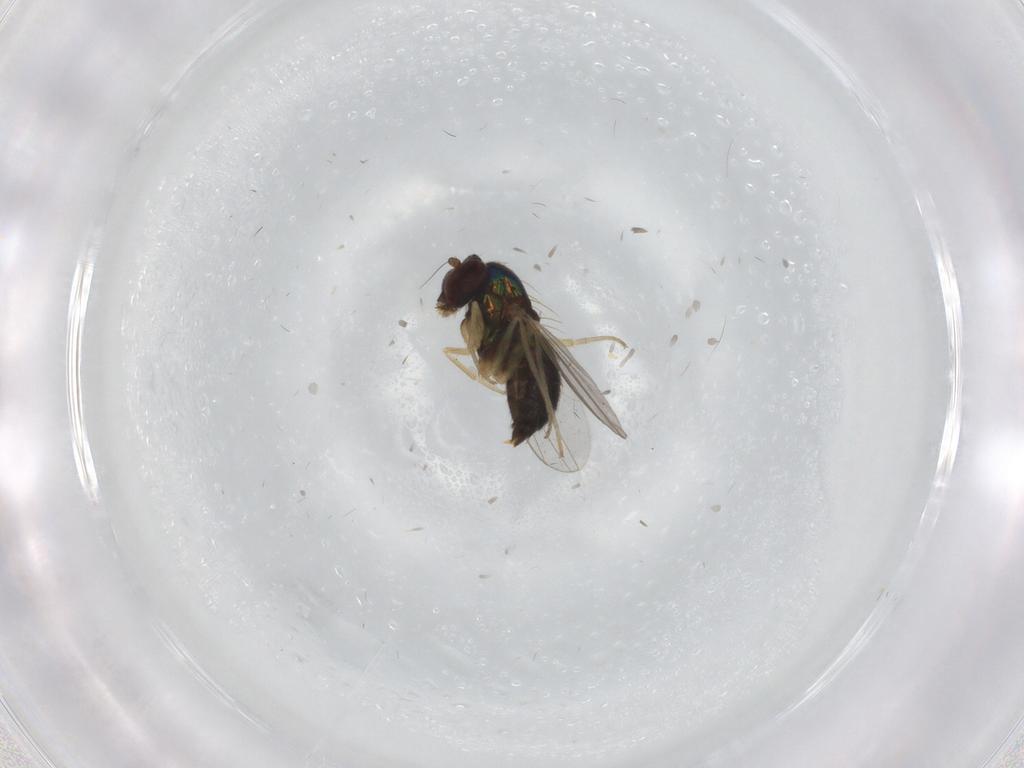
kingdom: Animalia
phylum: Arthropoda
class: Insecta
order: Diptera
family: Dolichopodidae
